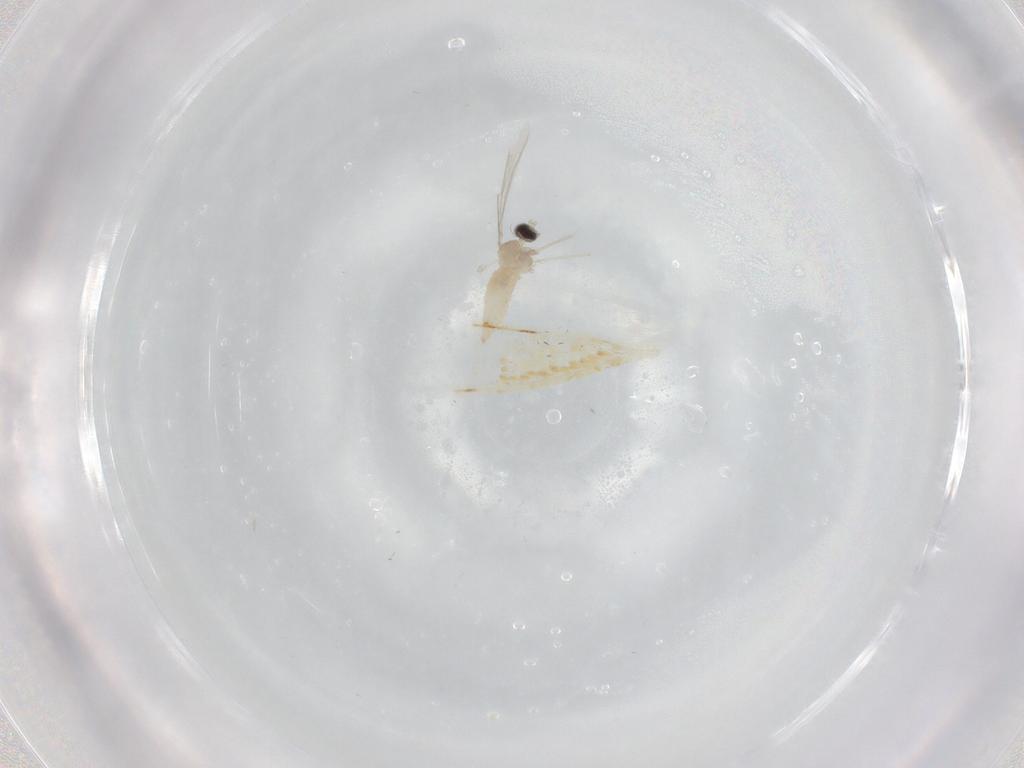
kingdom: Animalia
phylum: Arthropoda
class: Insecta
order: Diptera
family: Cecidomyiidae
